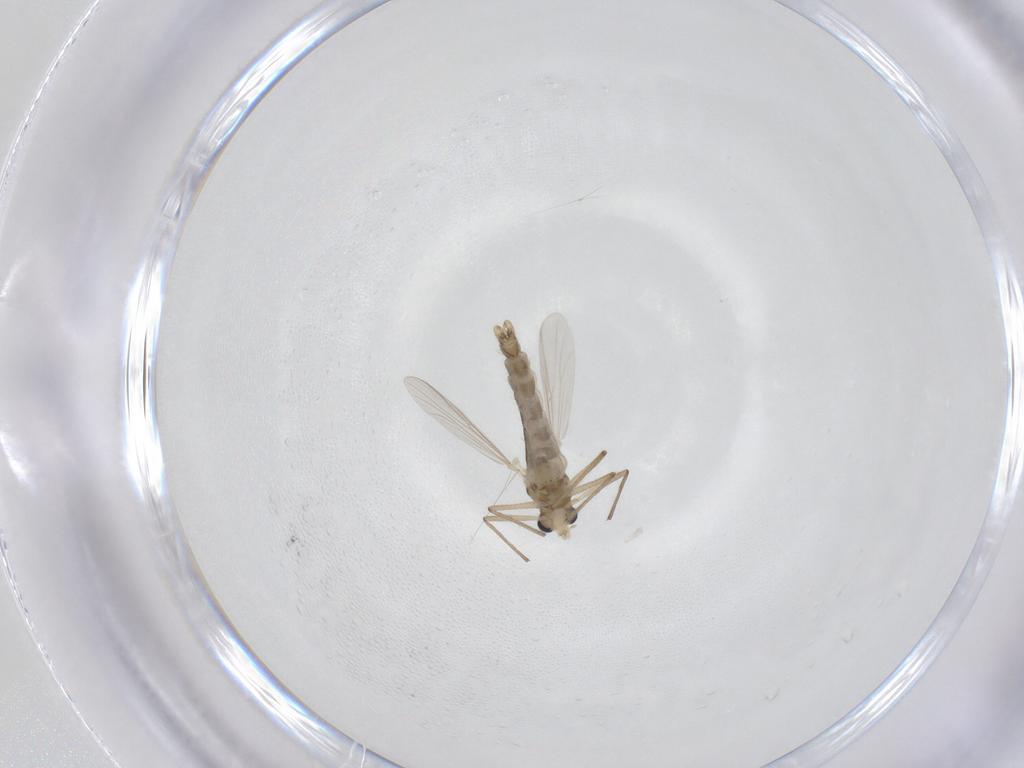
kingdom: Animalia
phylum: Arthropoda
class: Insecta
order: Diptera
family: Chironomidae
